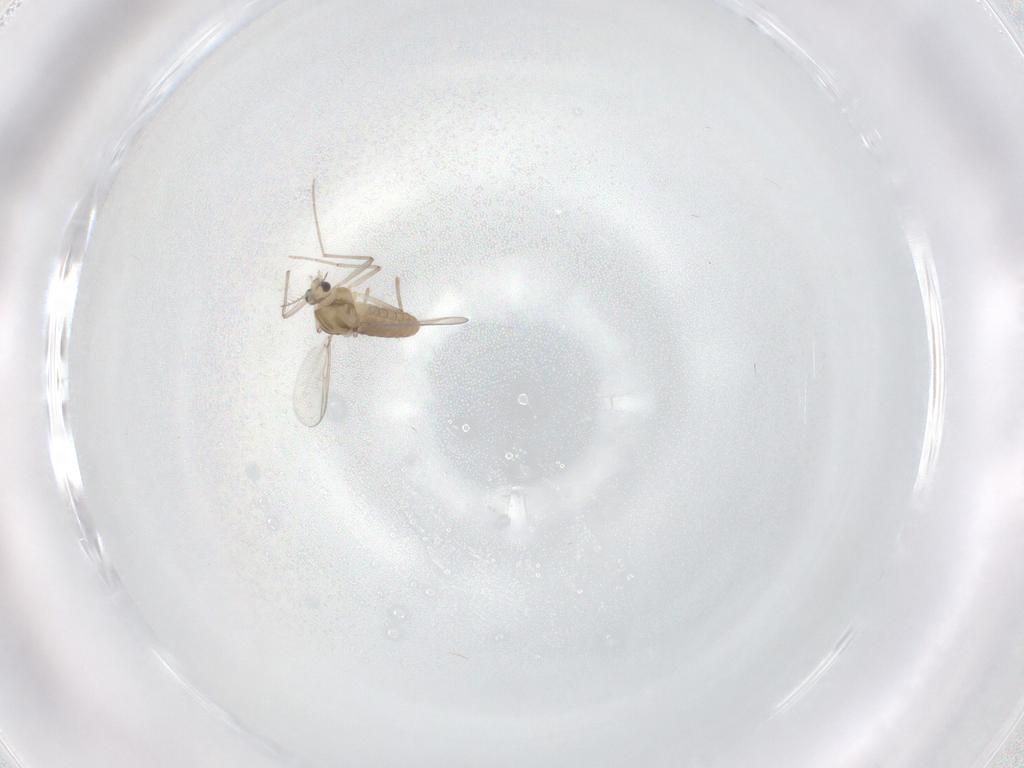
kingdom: Animalia
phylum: Arthropoda
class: Insecta
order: Diptera
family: Chironomidae
